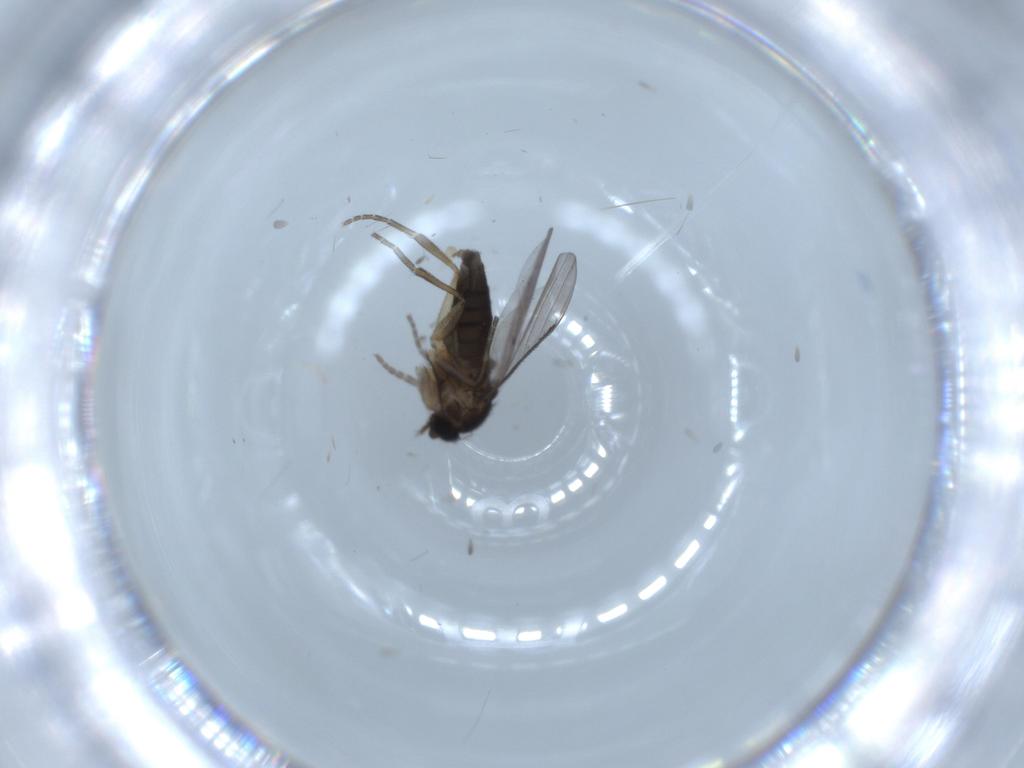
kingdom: Animalia
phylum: Arthropoda
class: Insecta
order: Diptera
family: Phoridae
